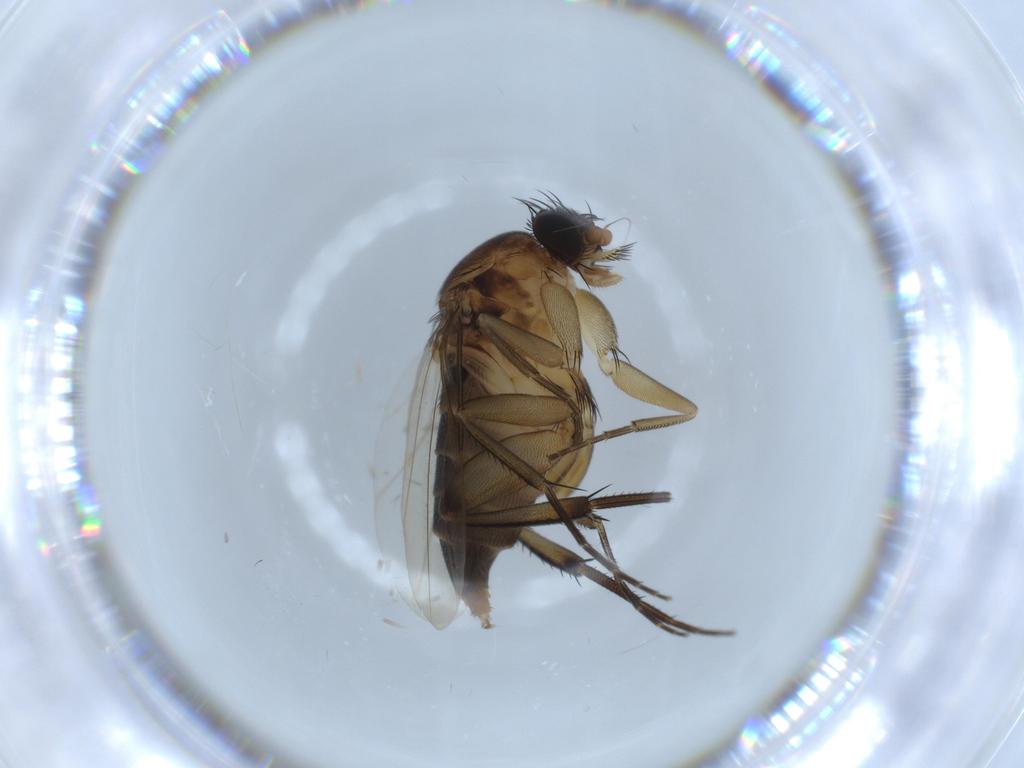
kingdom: Animalia
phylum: Arthropoda
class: Insecta
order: Diptera
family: Phoridae
